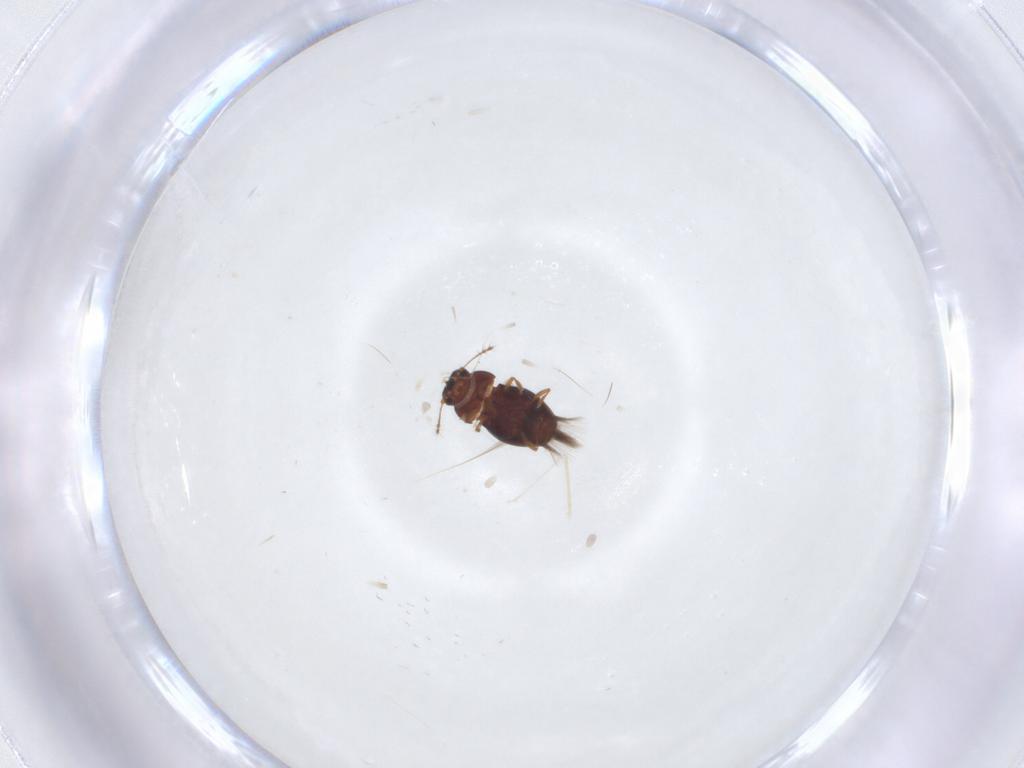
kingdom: Animalia
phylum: Arthropoda
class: Insecta
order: Coleoptera
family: Ptiliidae
